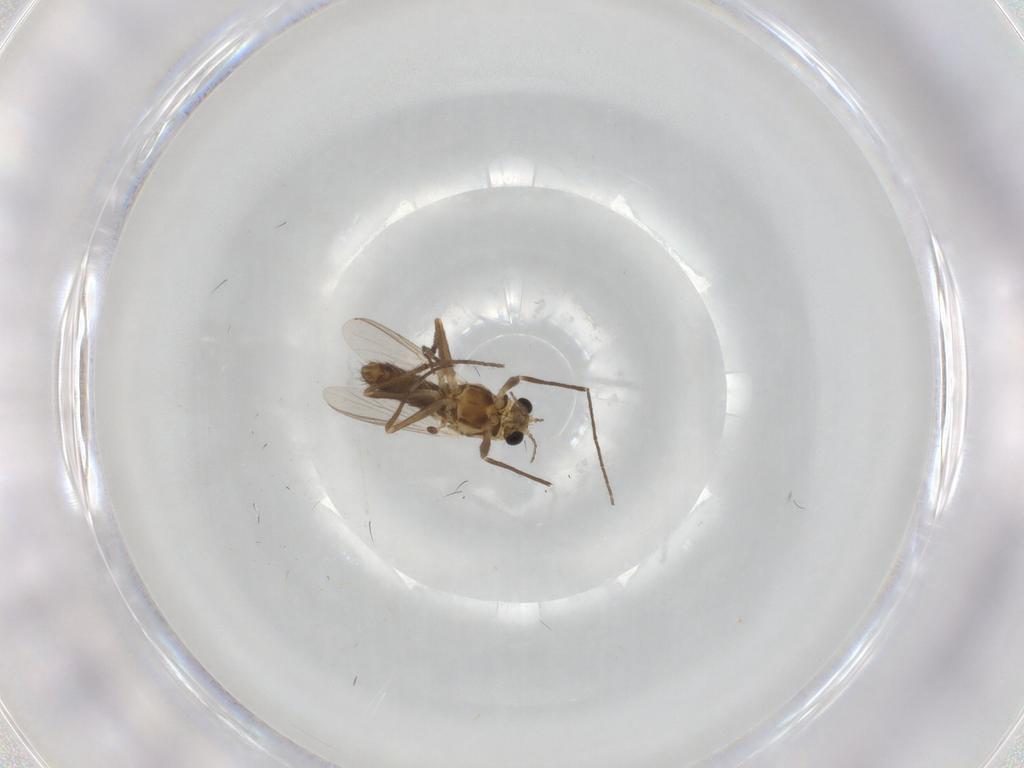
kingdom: Animalia
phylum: Arthropoda
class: Insecta
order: Diptera
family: Chironomidae
